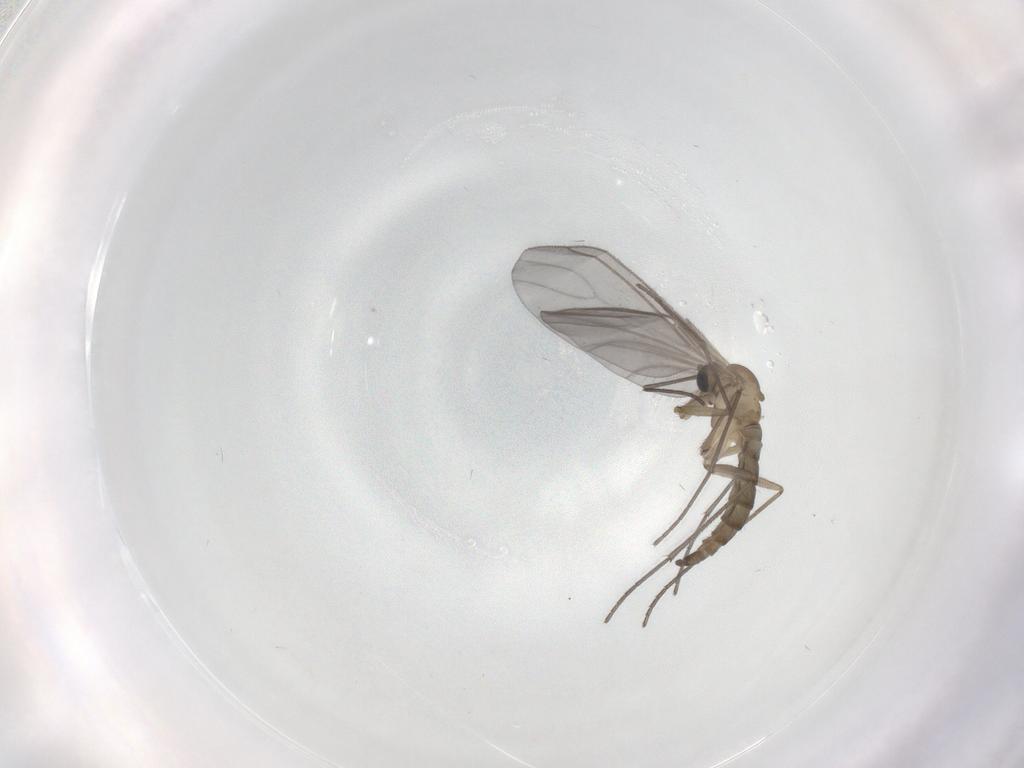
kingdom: Animalia
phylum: Arthropoda
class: Insecta
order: Diptera
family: Sciaridae
